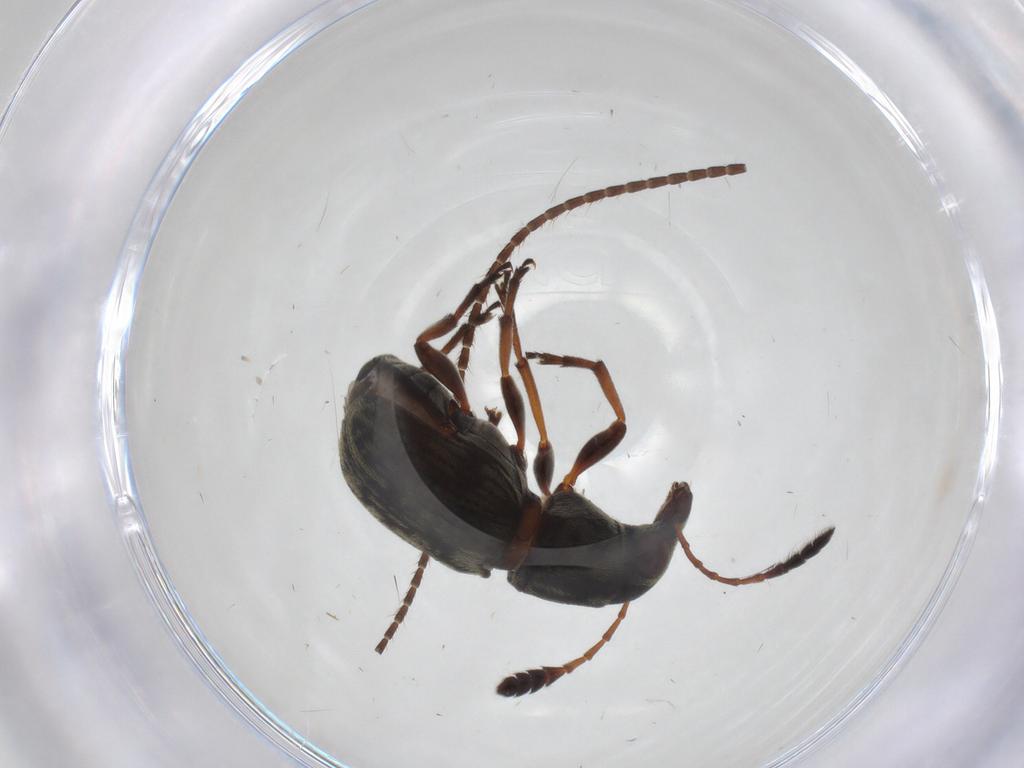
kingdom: Animalia
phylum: Arthropoda
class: Insecta
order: Coleoptera
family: Anthribidae
